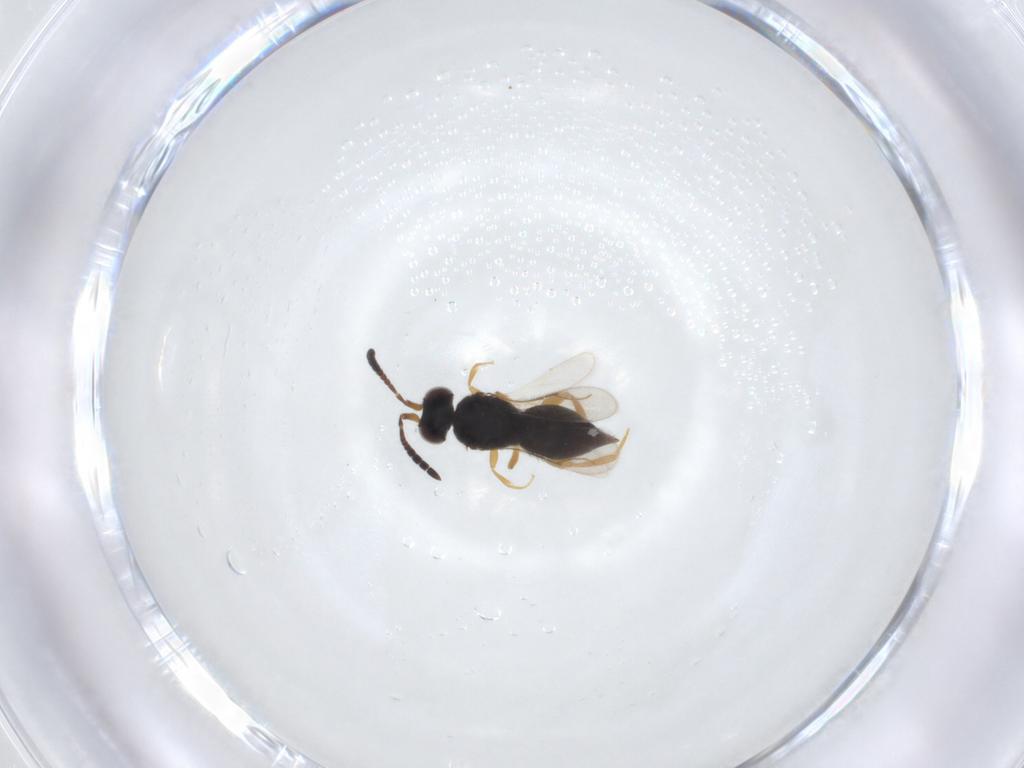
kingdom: Animalia
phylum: Arthropoda
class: Insecta
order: Hymenoptera
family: Ceraphronidae
